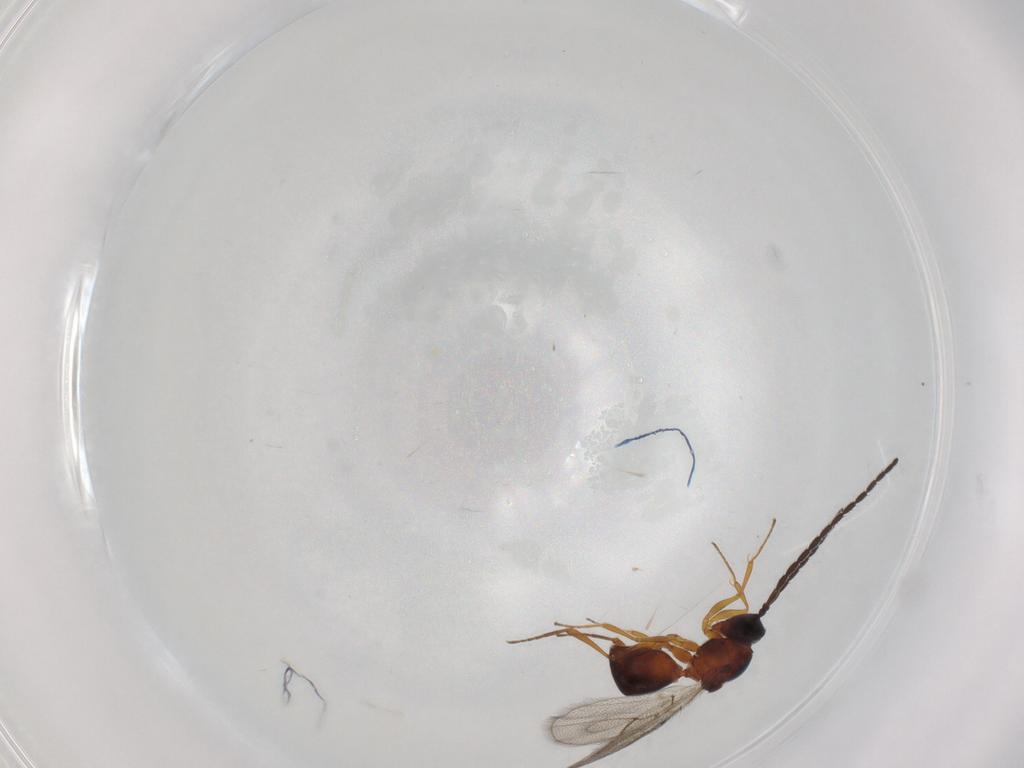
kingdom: Animalia
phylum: Arthropoda
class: Insecta
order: Hymenoptera
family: Figitidae
